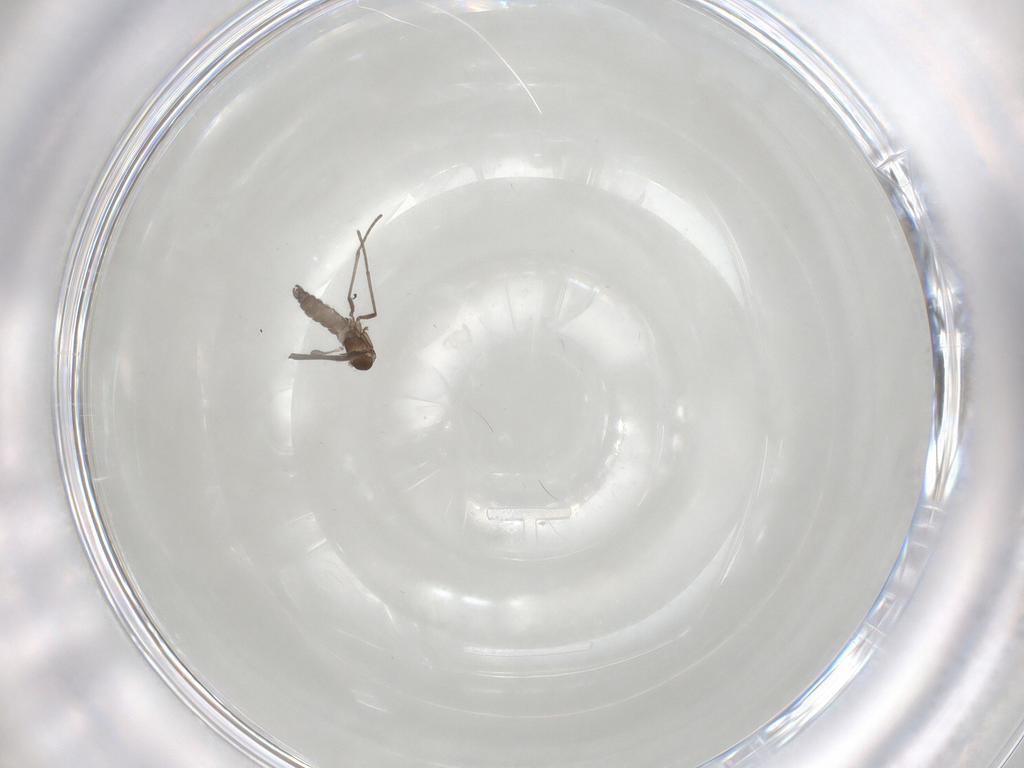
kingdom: Animalia
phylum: Arthropoda
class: Insecta
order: Diptera
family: Sciaridae
